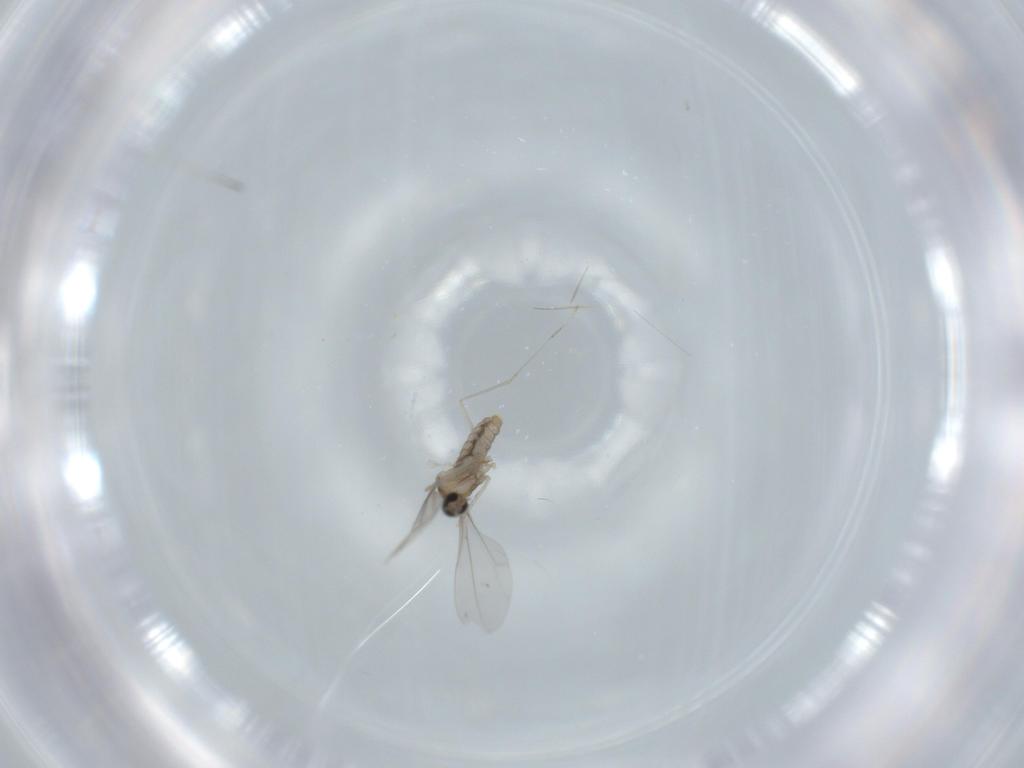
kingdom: Animalia
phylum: Arthropoda
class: Insecta
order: Diptera
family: Cecidomyiidae
